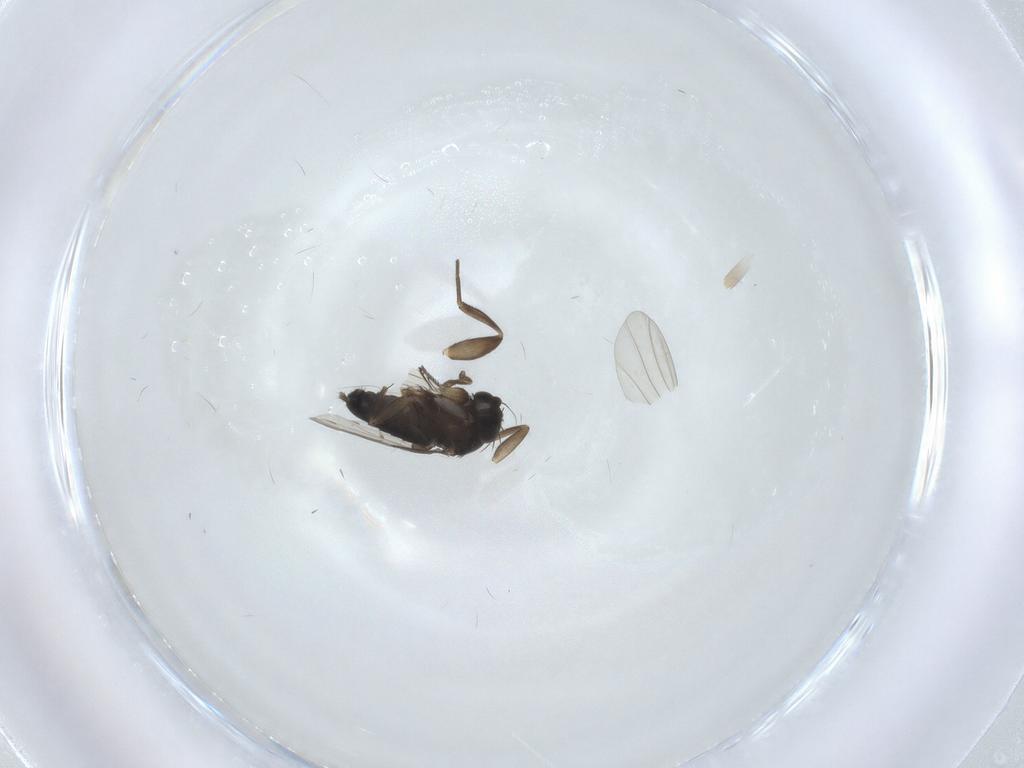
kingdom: Animalia
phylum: Arthropoda
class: Insecta
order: Diptera
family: Phoridae
